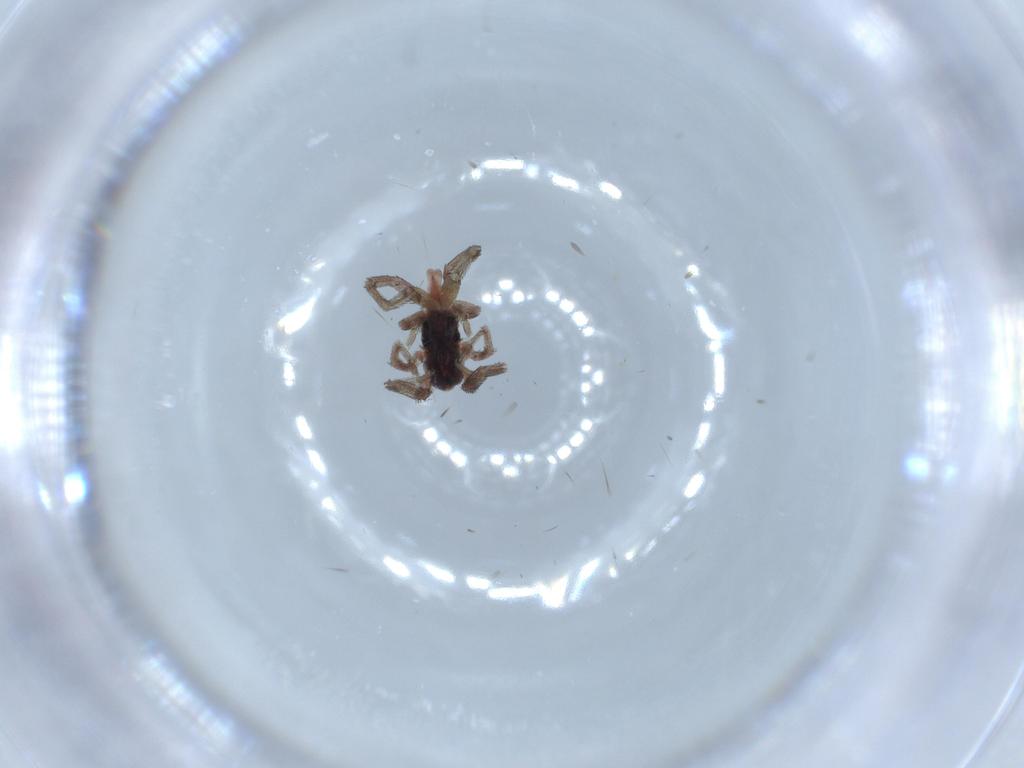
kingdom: Animalia
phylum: Arthropoda
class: Arachnida
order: Trombidiformes
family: Erythraeidae
